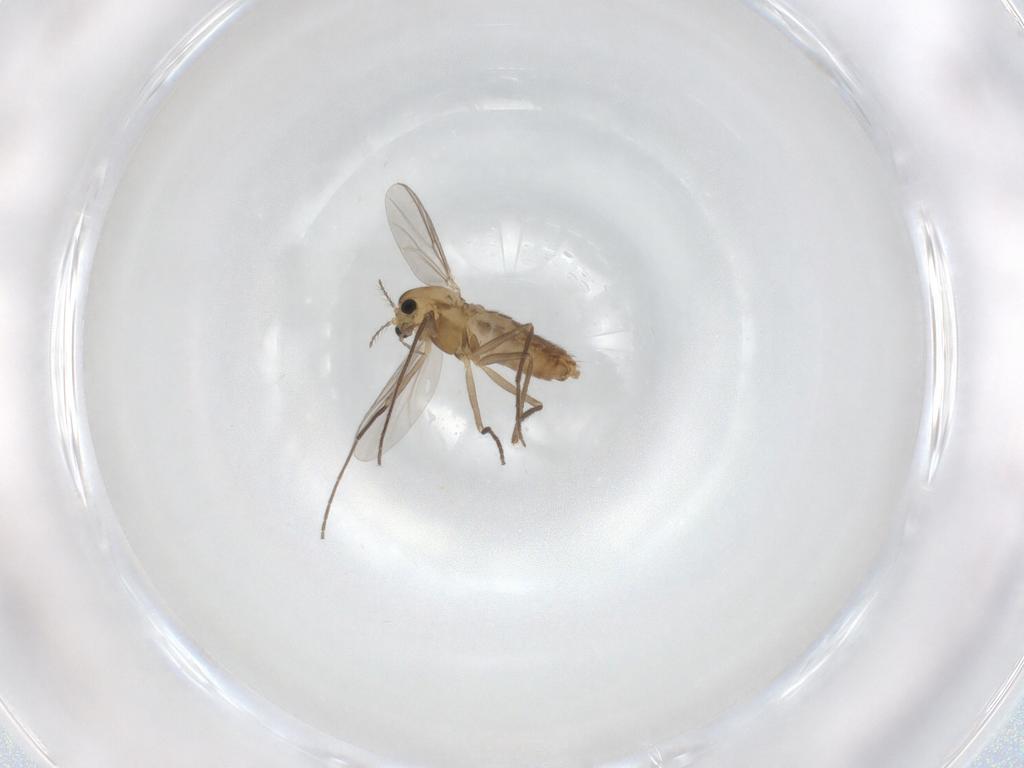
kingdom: Animalia
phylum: Arthropoda
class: Insecta
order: Diptera
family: Chironomidae
